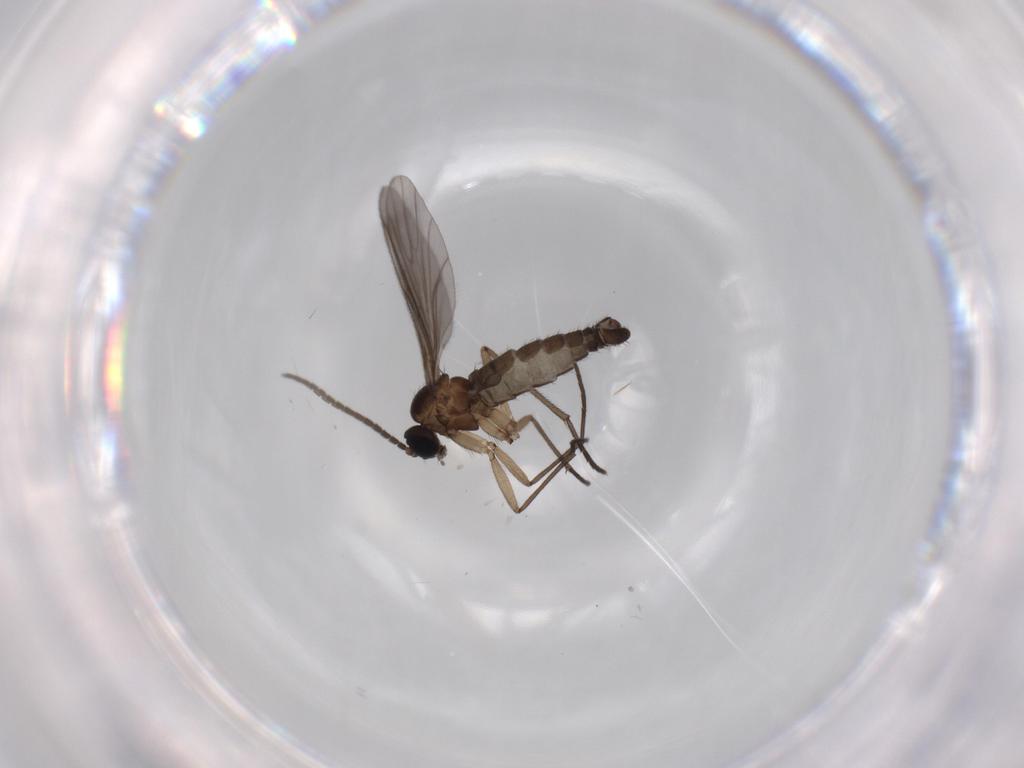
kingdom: Animalia
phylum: Arthropoda
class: Insecta
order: Diptera
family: Sciaridae
